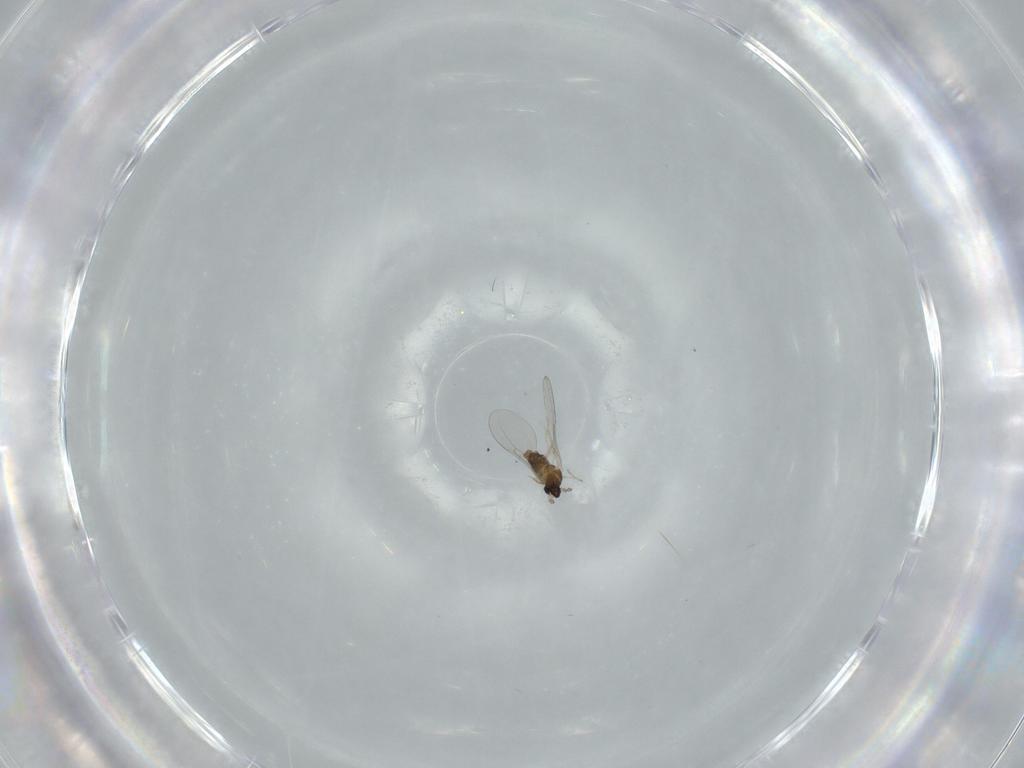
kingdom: Animalia
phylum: Arthropoda
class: Insecta
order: Diptera
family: Cecidomyiidae
